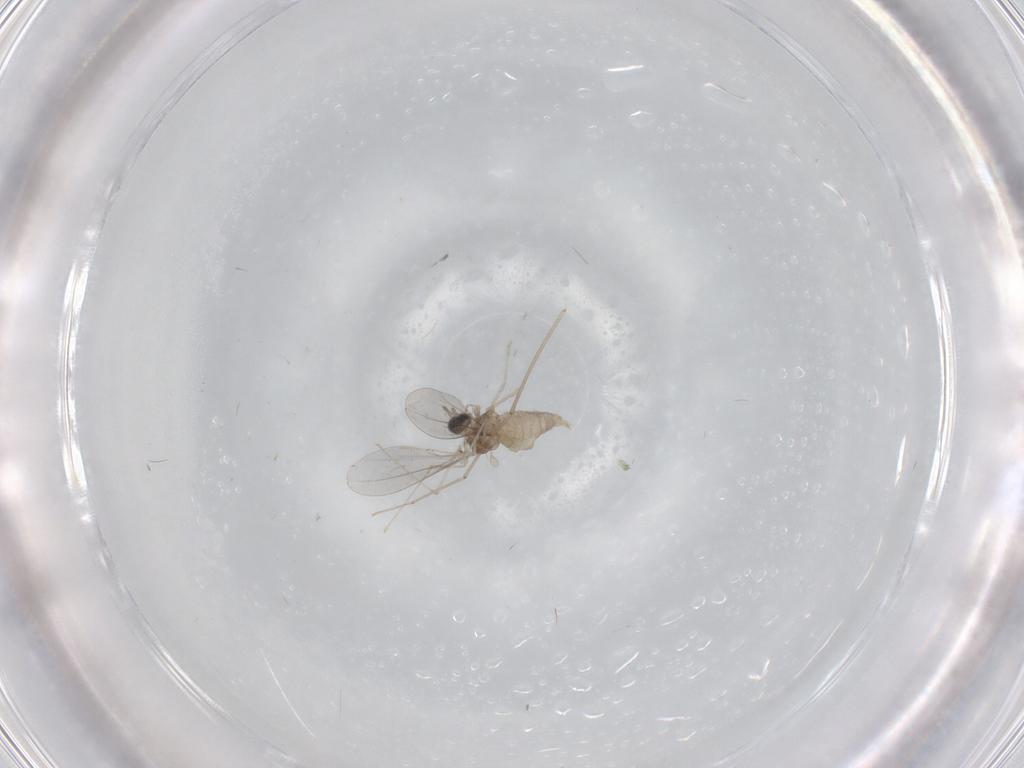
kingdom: Animalia
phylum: Arthropoda
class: Insecta
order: Diptera
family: Cecidomyiidae
